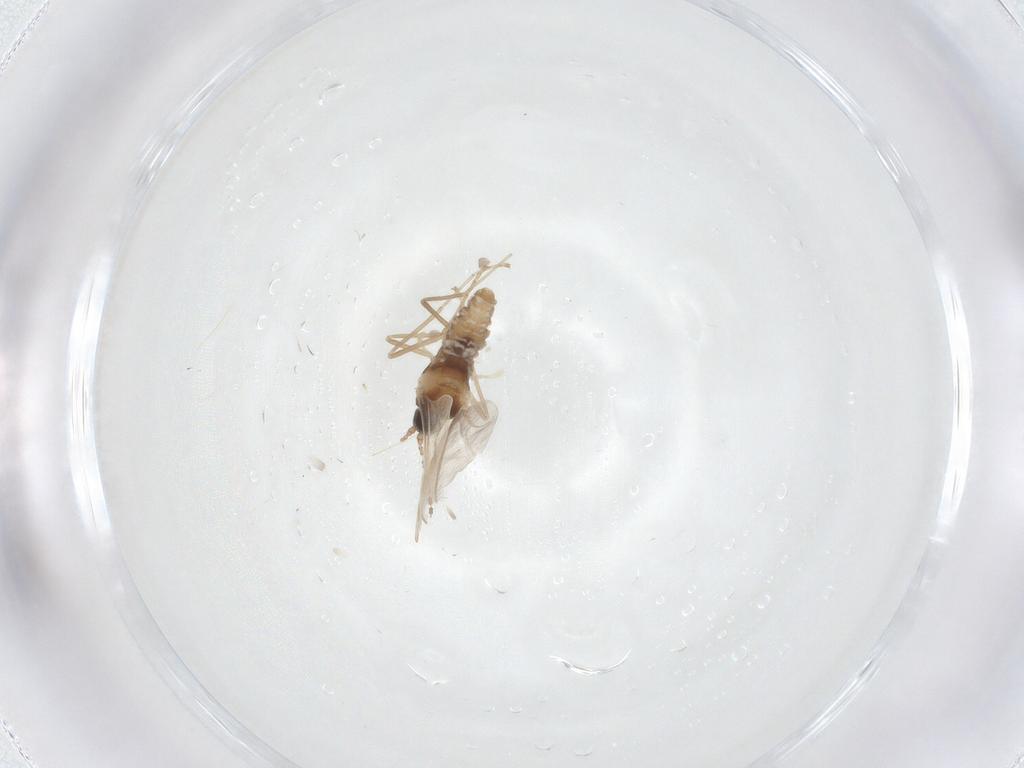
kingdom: Animalia
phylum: Arthropoda
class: Insecta
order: Diptera
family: Cecidomyiidae
